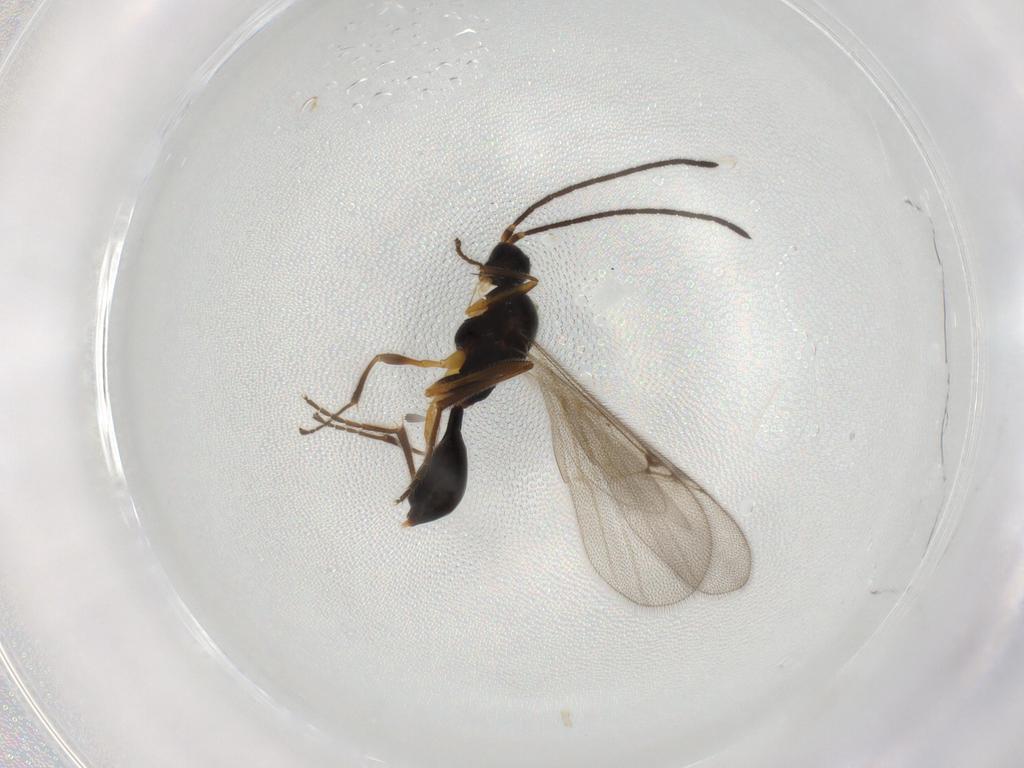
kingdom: Animalia
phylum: Arthropoda
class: Insecta
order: Hymenoptera
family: Proctotrupidae
